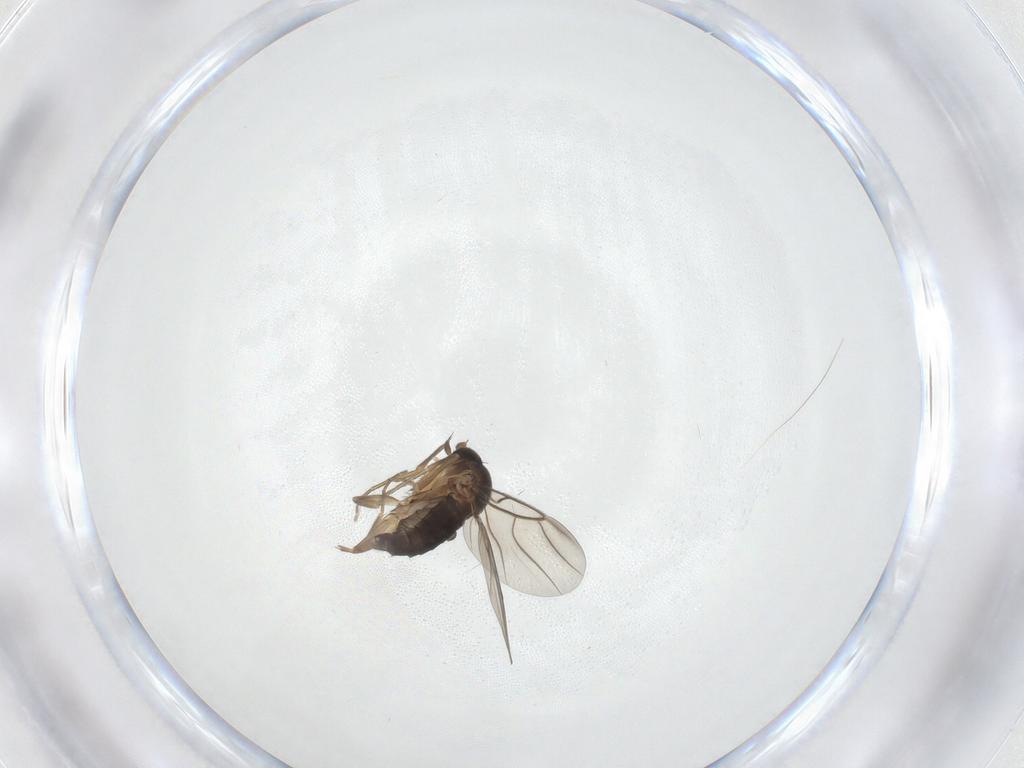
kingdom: Animalia
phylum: Arthropoda
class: Insecta
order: Diptera
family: Phoridae
